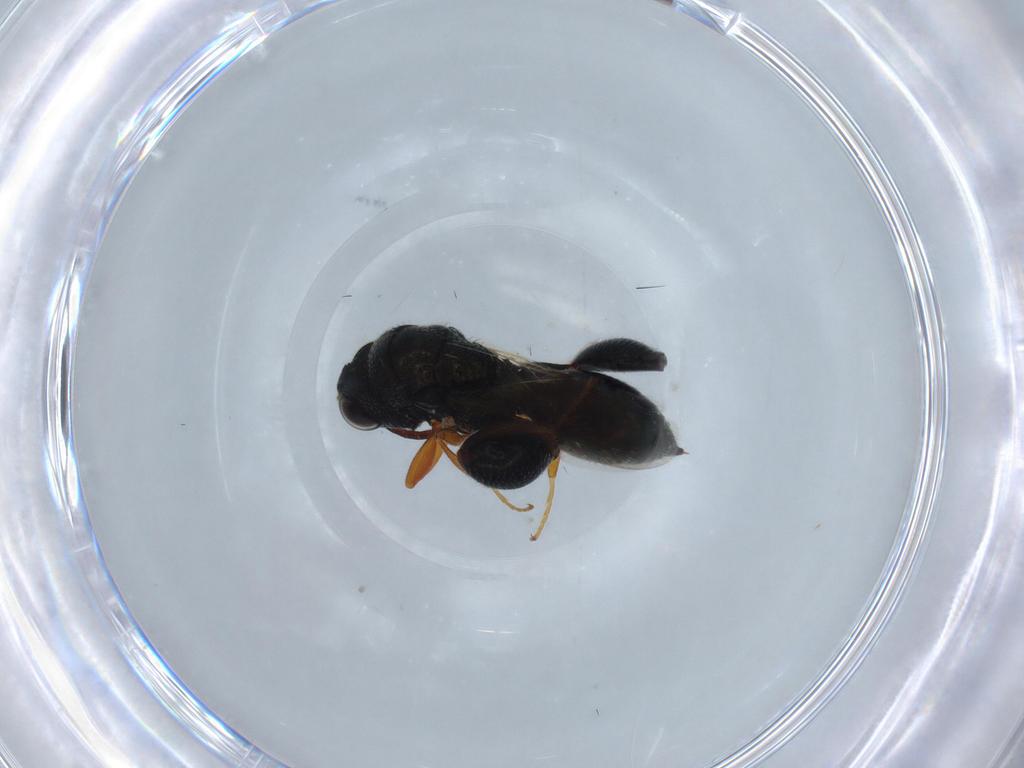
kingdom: Animalia
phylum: Arthropoda
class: Insecta
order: Hymenoptera
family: Chalcididae
